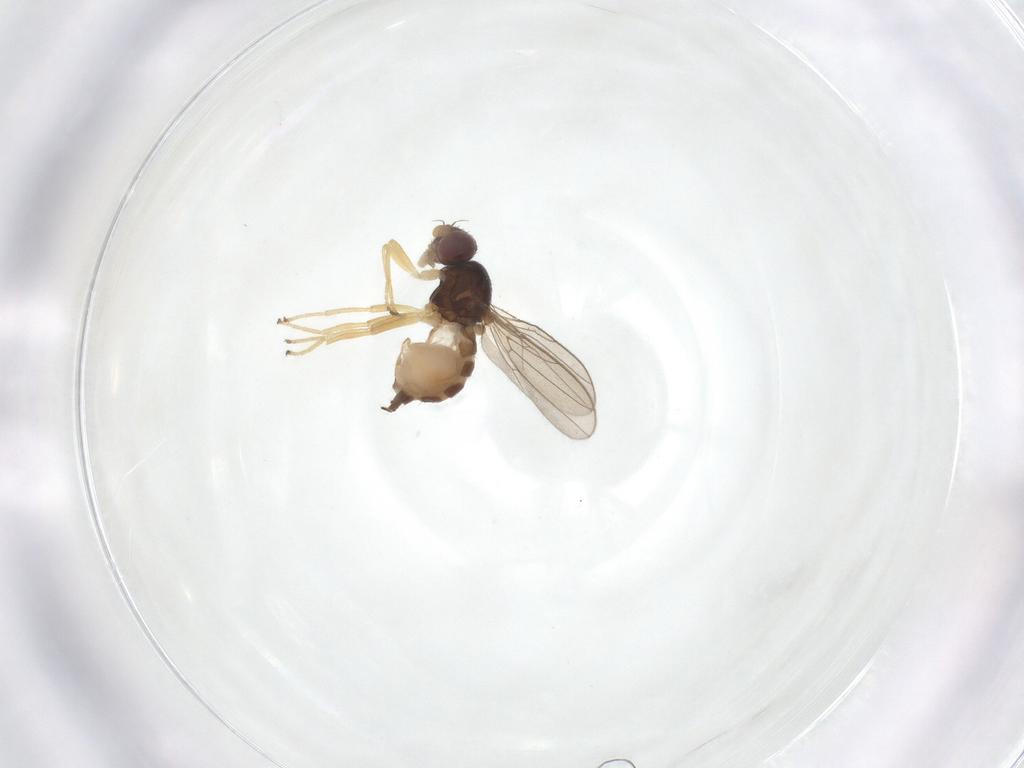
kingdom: Animalia
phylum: Arthropoda
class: Insecta
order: Diptera
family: Chloropidae
